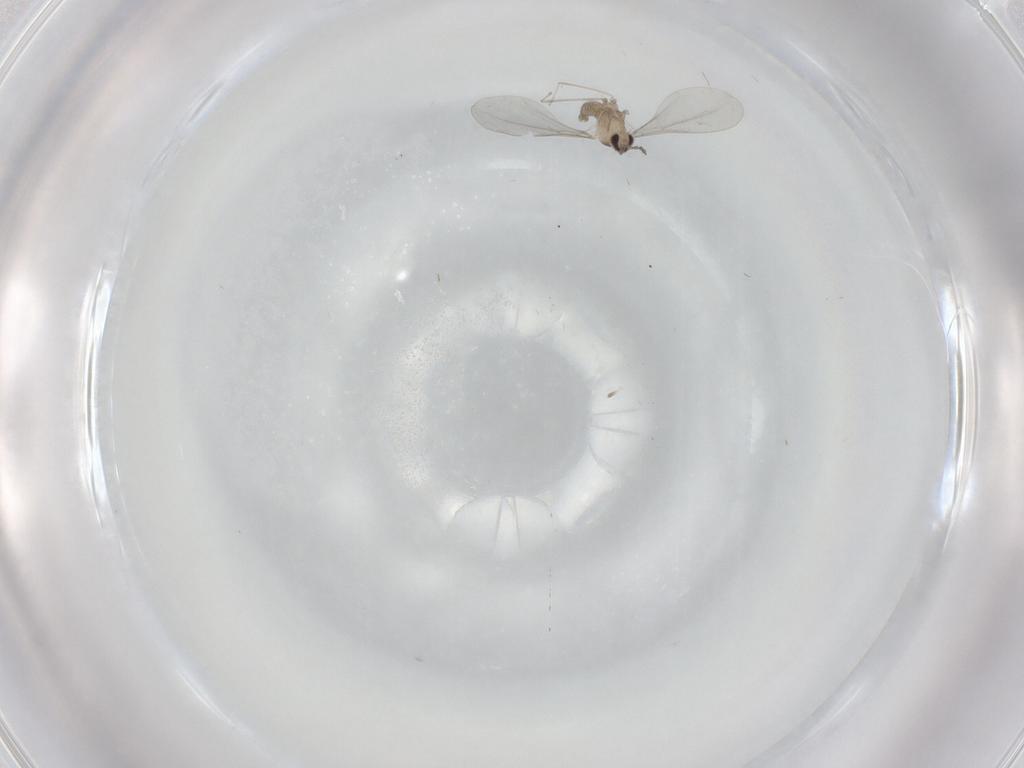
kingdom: Animalia
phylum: Arthropoda
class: Insecta
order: Diptera
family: Cecidomyiidae
